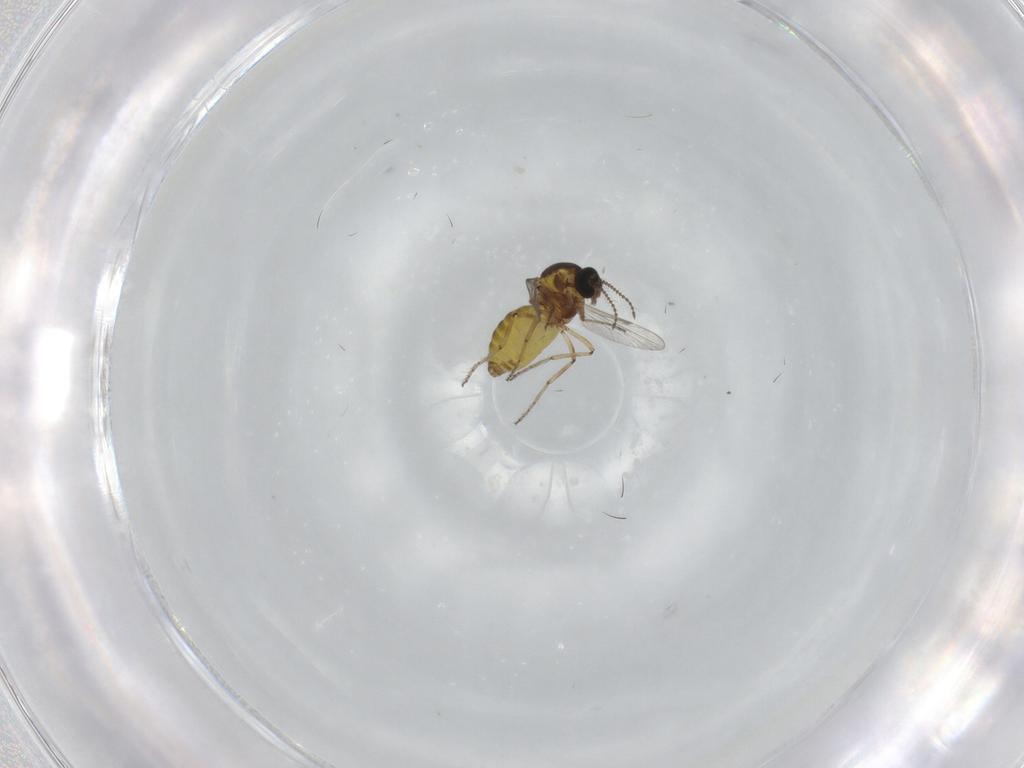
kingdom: Animalia
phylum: Arthropoda
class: Insecta
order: Diptera
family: Ceratopogonidae
